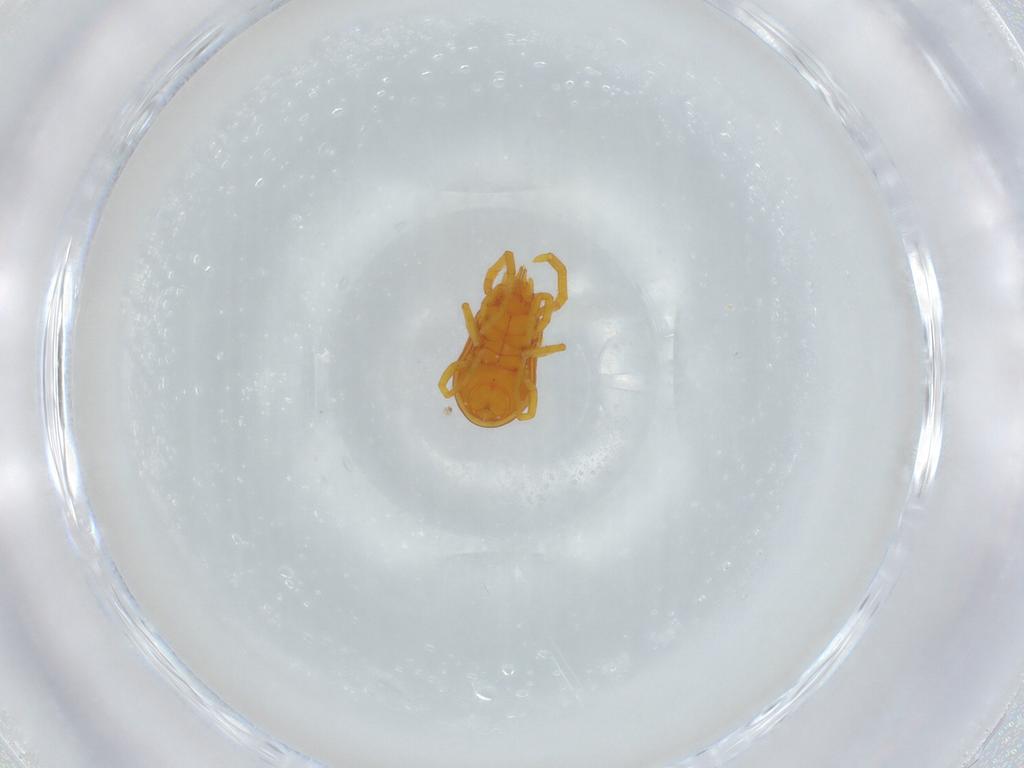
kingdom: Animalia
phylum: Arthropoda
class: Arachnida
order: Trombidiformes
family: Labidostommidae
